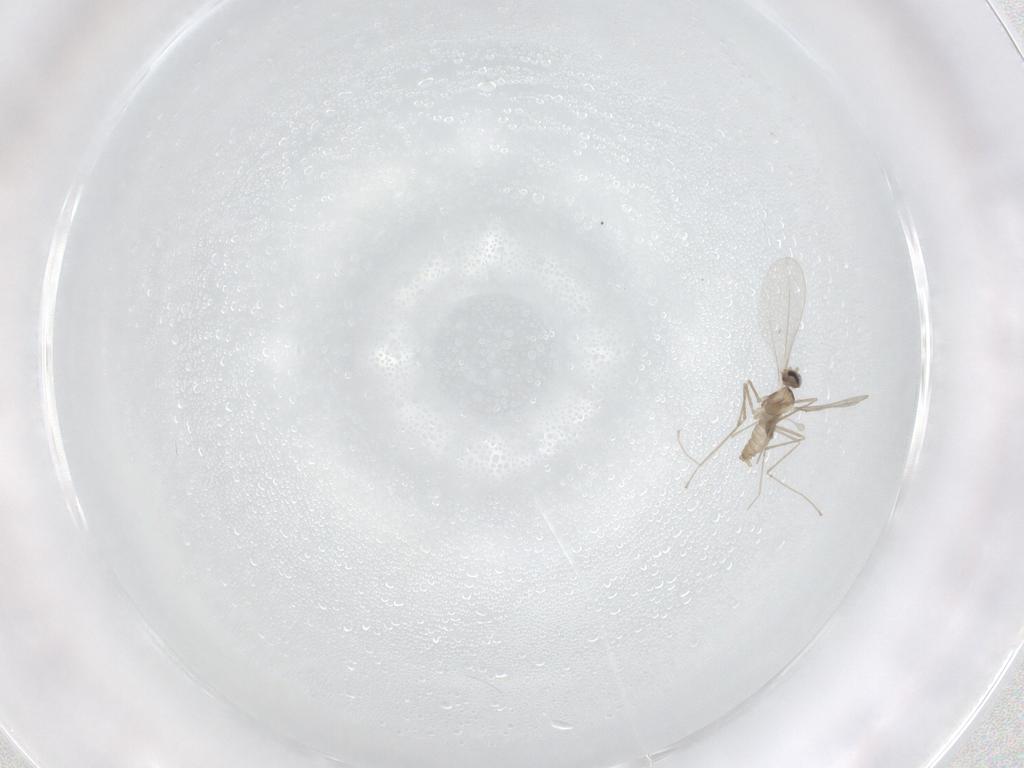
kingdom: Animalia
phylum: Arthropoda
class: Insecta
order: Diptera
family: Cecidomyiidae
